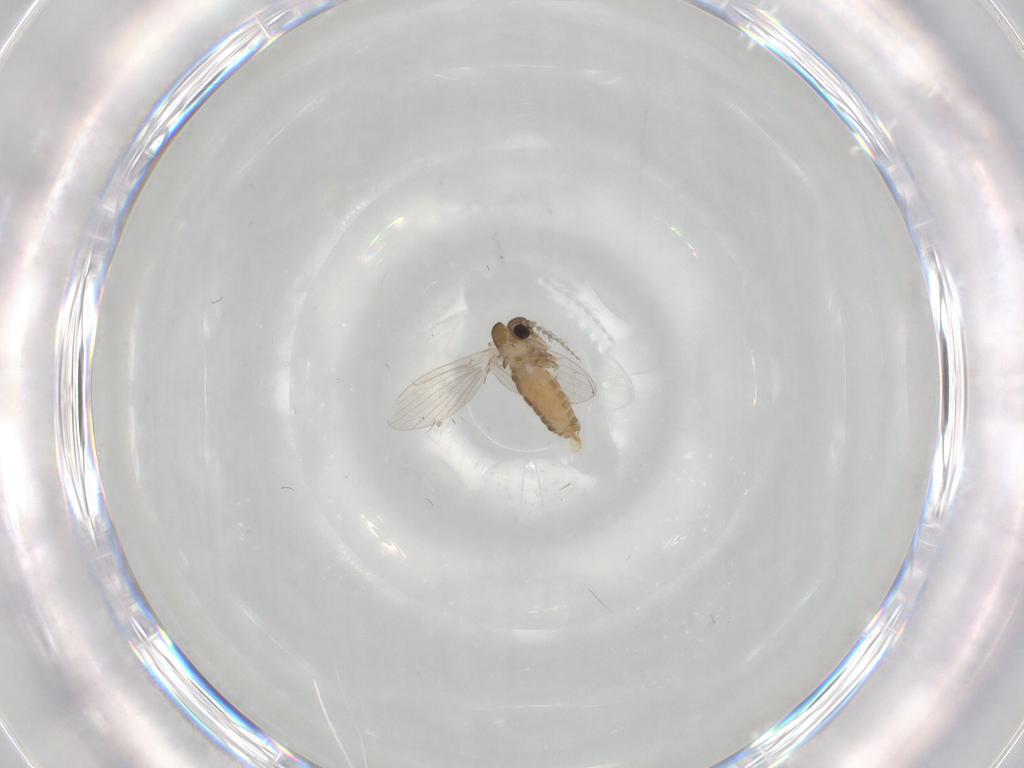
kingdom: Animalia
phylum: Arthropoda
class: Insecta
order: Diptera
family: Psychodidae
